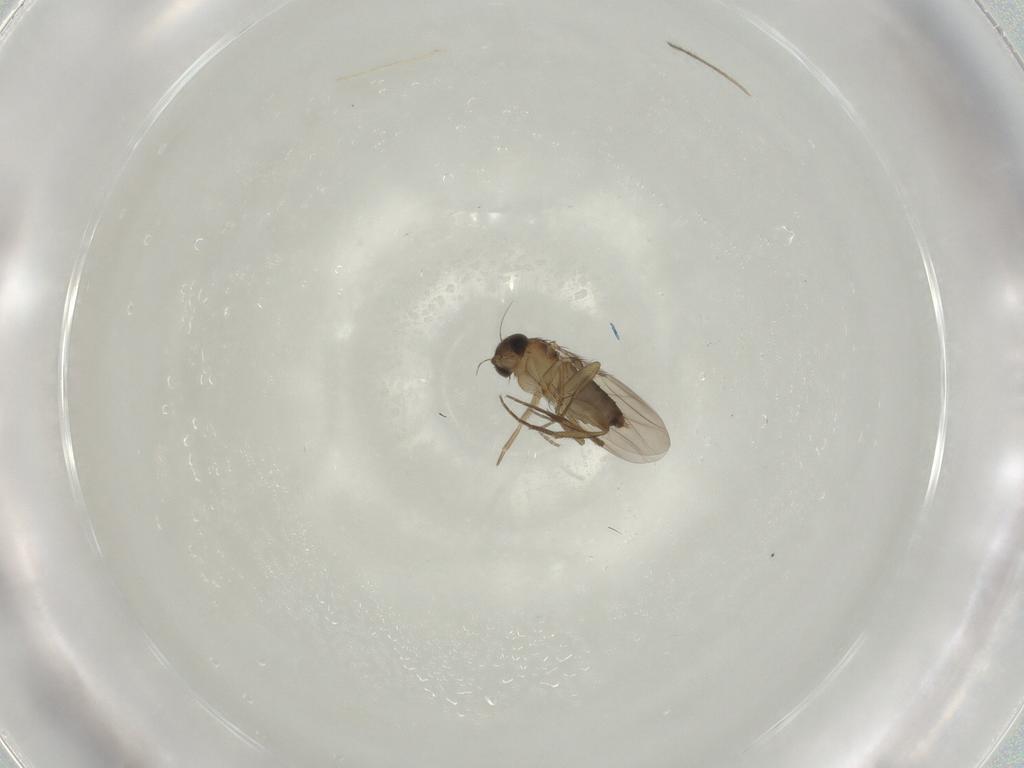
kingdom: Animalia
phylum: Arthropoda
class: Insecta
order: Diptera
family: Phoridae
